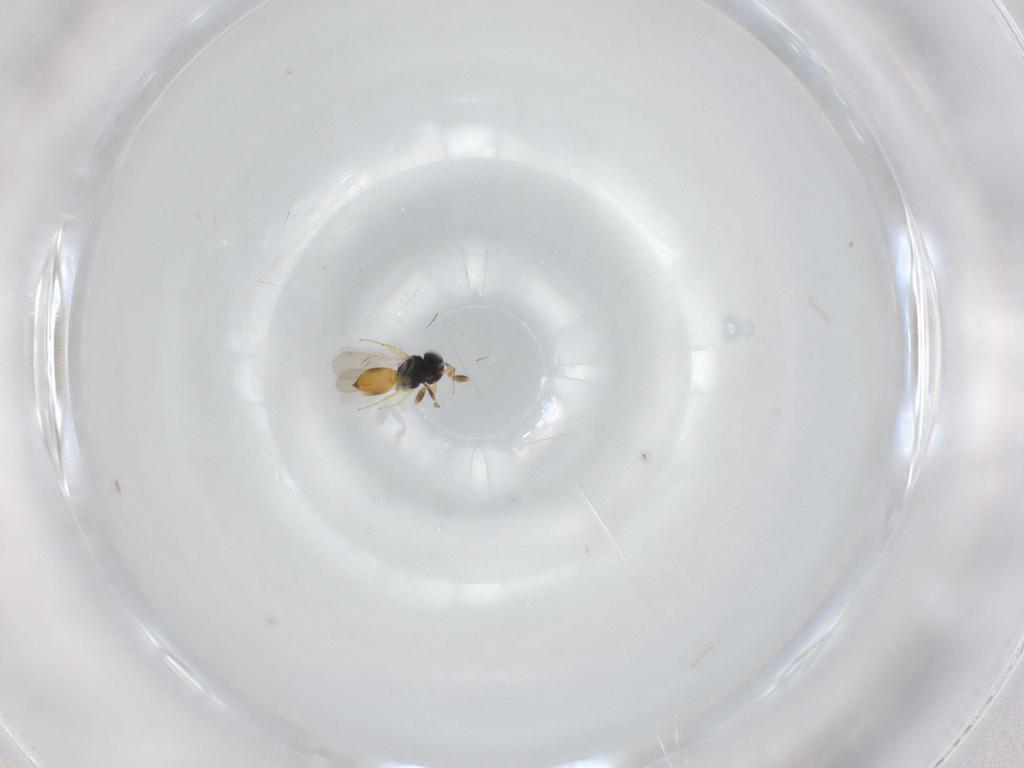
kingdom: Animalia
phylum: Arthropoda
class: Insecta
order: Hymenoptera
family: Scelionidae
